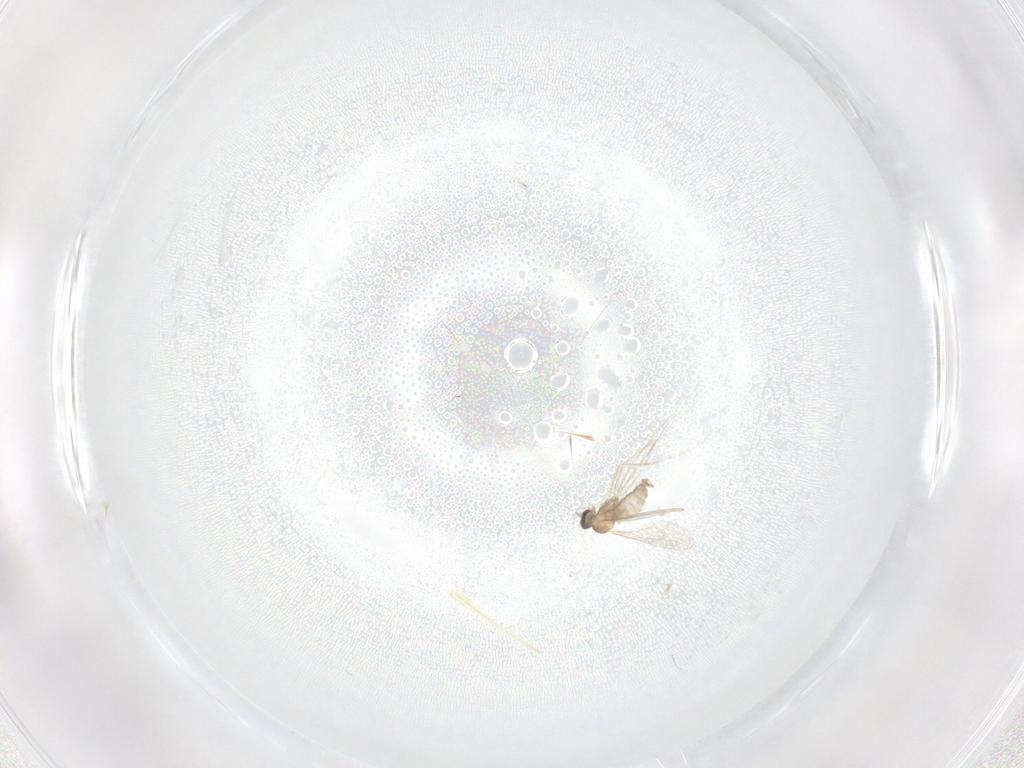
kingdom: Animalia
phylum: Arthropoda
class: Insecta
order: Diptera
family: Cecidomyiidae
